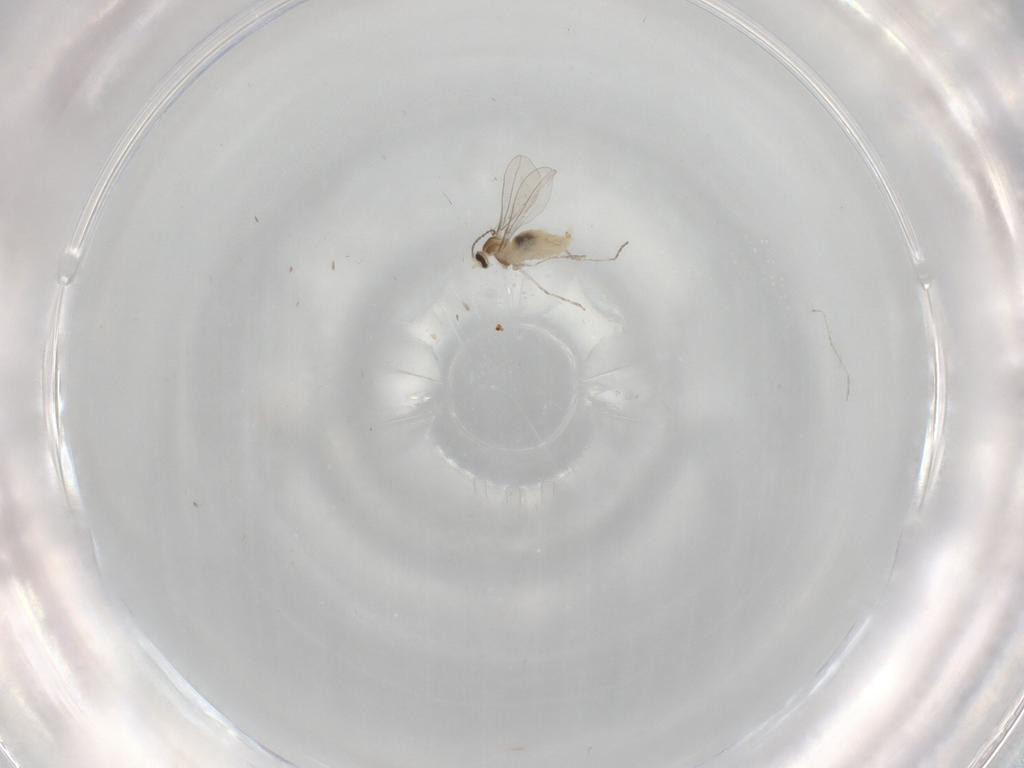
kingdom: Animalia
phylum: Arthropoda
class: Insecta
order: Diptera
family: Cecidomyiidae
